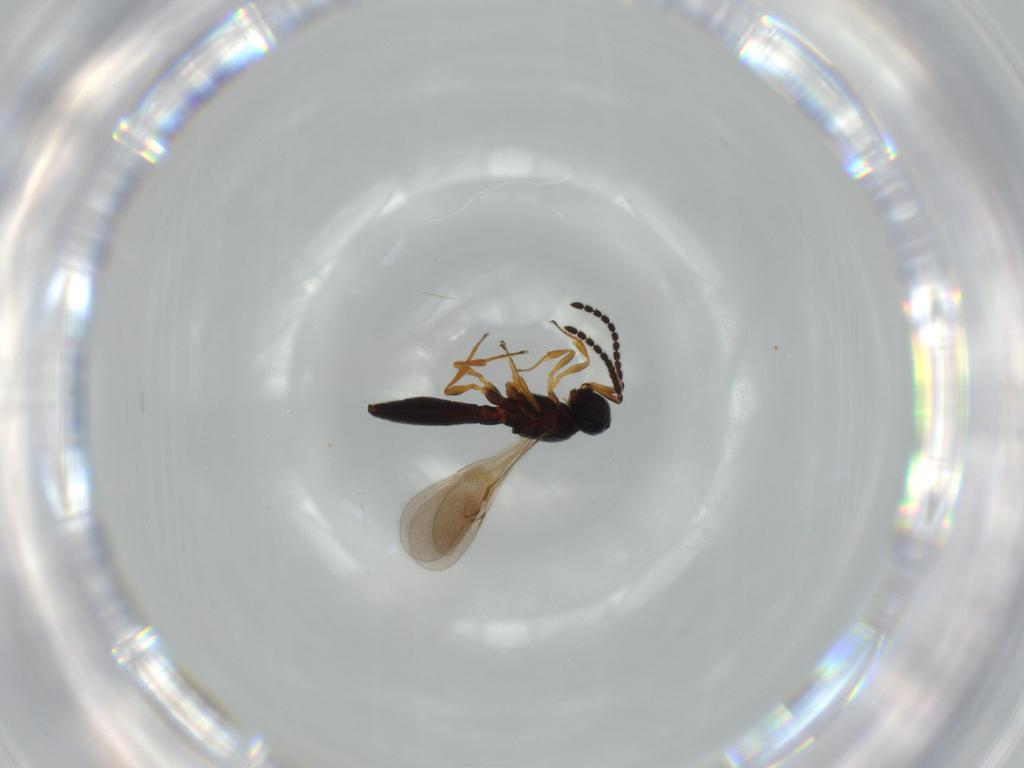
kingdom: Animalia
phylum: Arthropoda
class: Insecta
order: Hymenoptera
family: Scelionidae
